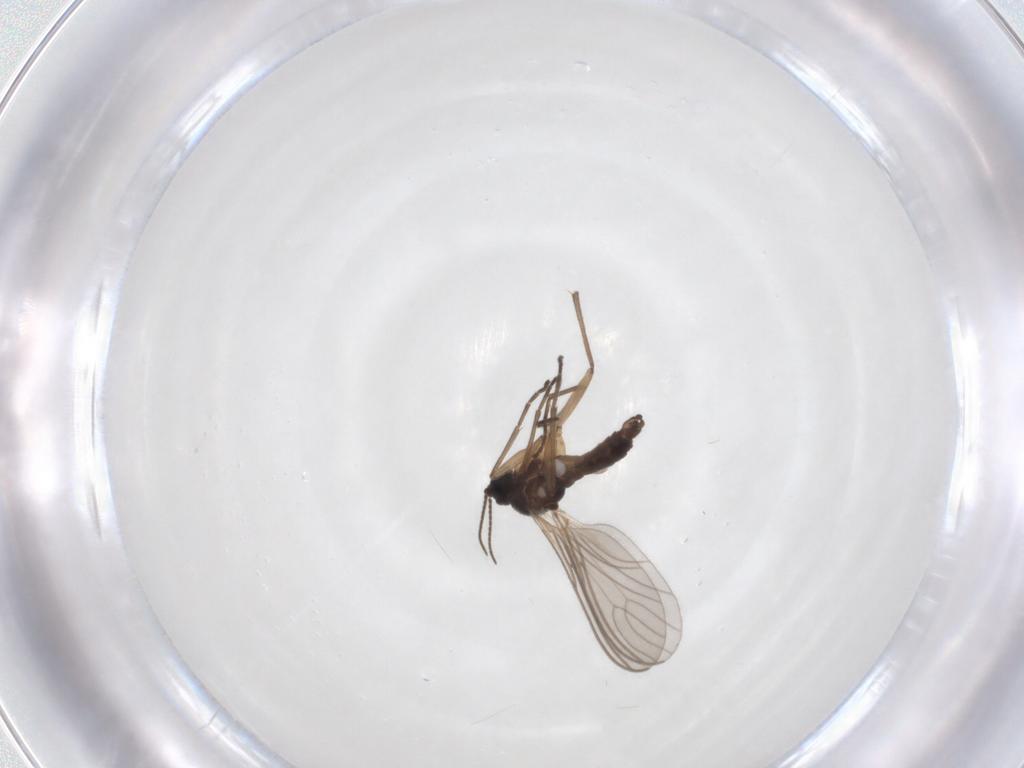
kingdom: Animalia
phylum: Arthropoda
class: Insecta
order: Diptera
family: Sciaridae
